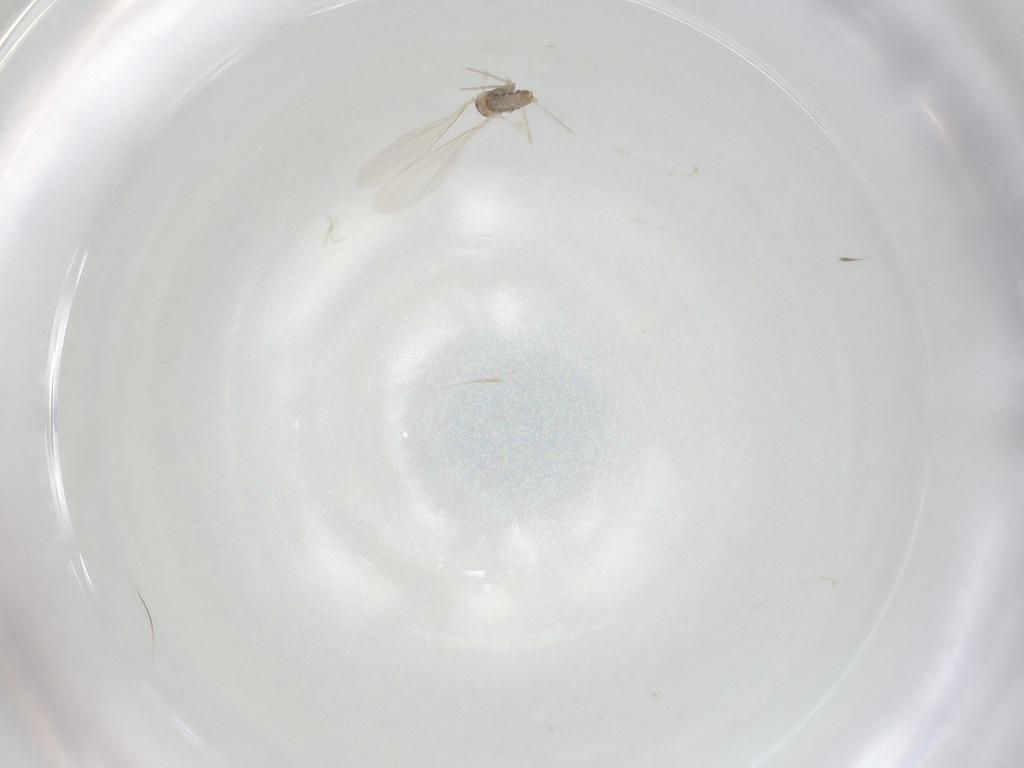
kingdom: Animalia
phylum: Arthropoda
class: Insecta
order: Diptera
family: Cecidomyiidae
